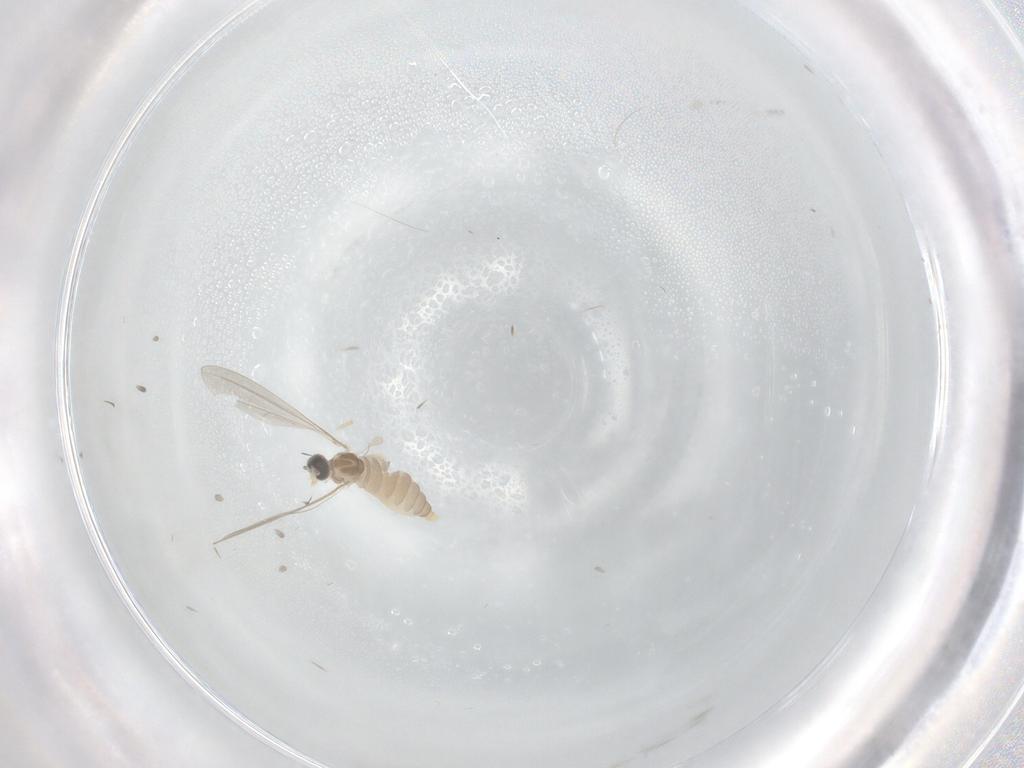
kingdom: Animalia
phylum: Arthropoda
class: Insecta
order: Diptera
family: Cecidomyiidae
